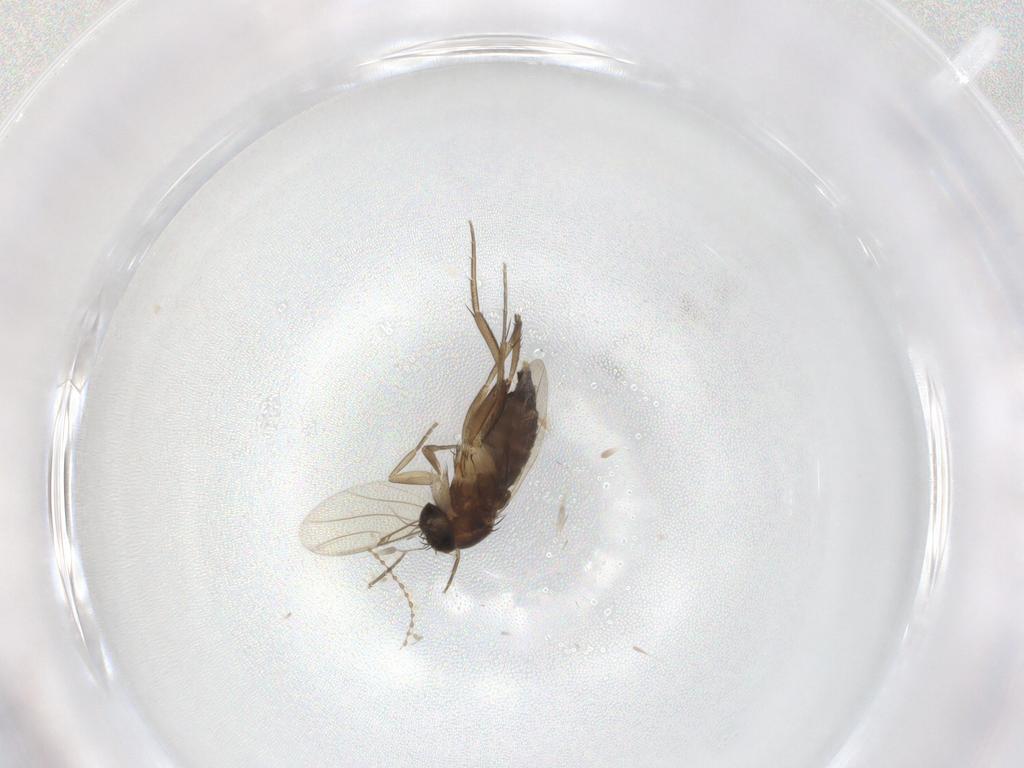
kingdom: Animalia
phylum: Arthropoda
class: Insecta
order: Diptera
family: Phoridae
